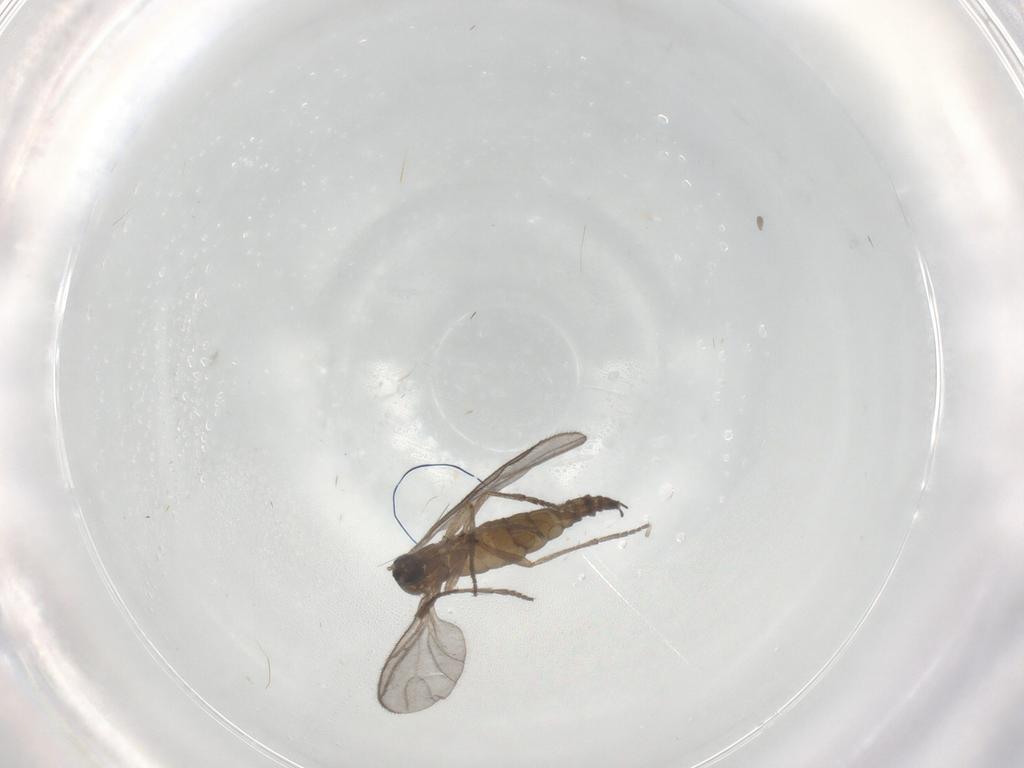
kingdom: Animalia
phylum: Arthropoda
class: Insecta
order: Diptera
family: Sciaridae
